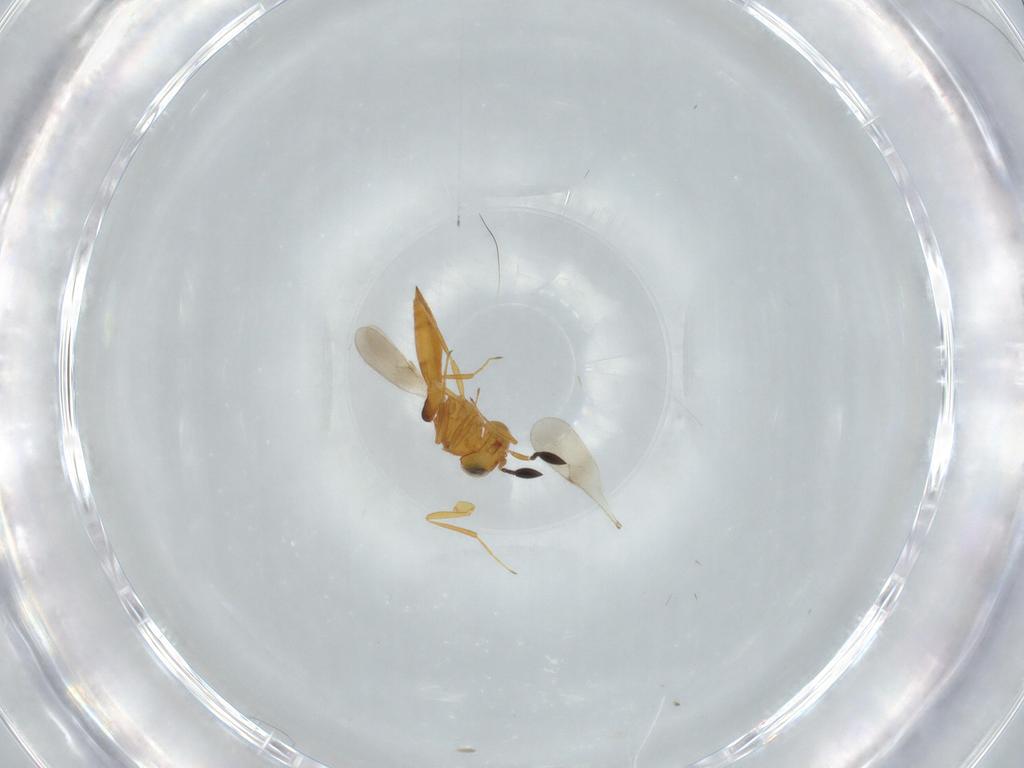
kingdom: Animalia
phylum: Arthropoda
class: Insecta
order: Hymenoptera
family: Scelionidae
